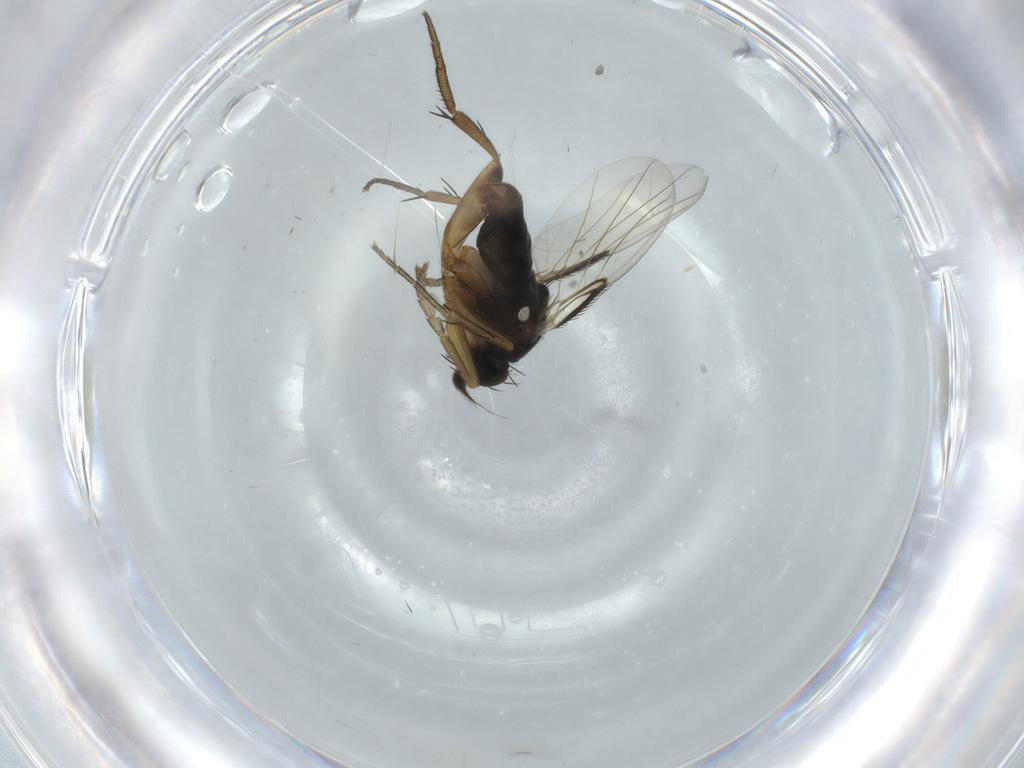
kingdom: Animalia
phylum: Arthropoda
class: Insecta
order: Diptera
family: Phoridae
